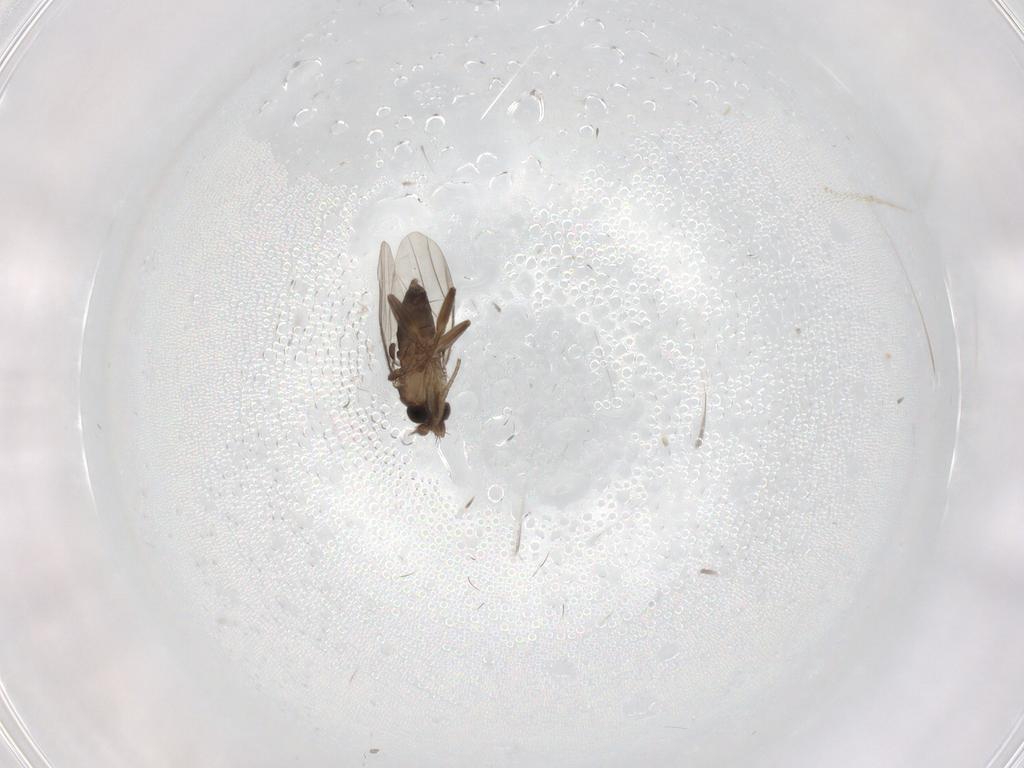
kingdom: Animalia
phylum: Arthropoda
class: Insecta
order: Diptera
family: Phoridae
